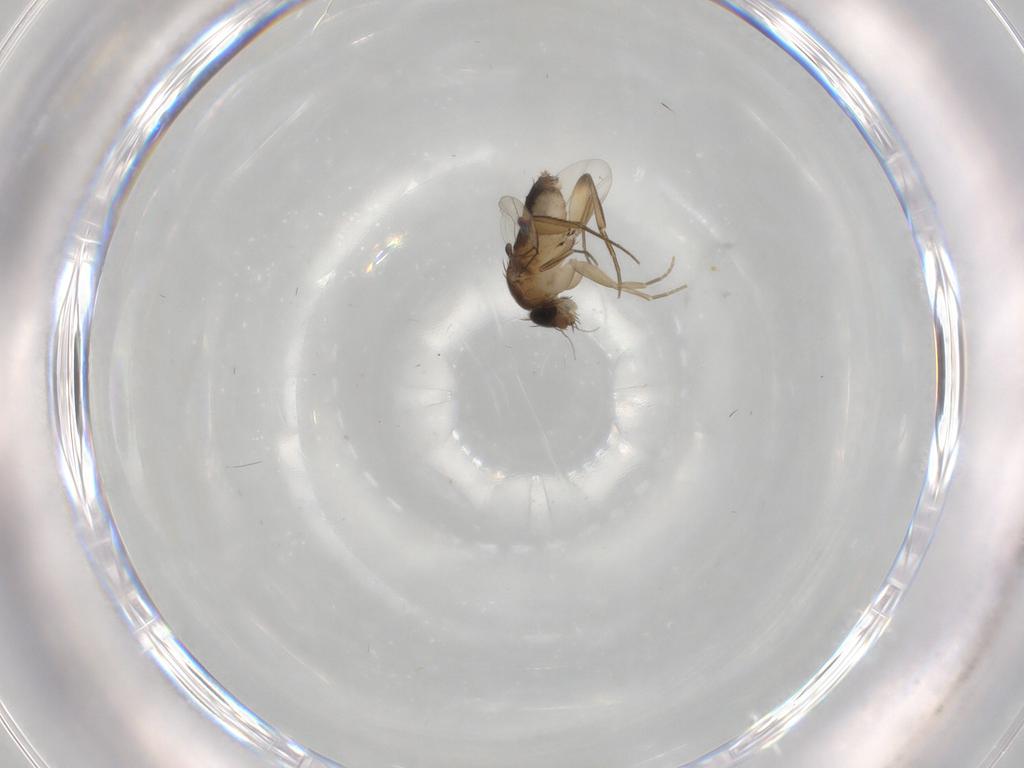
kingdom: Animalia
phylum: Arthropoda
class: Insecta
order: Diptera
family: Phoridae
